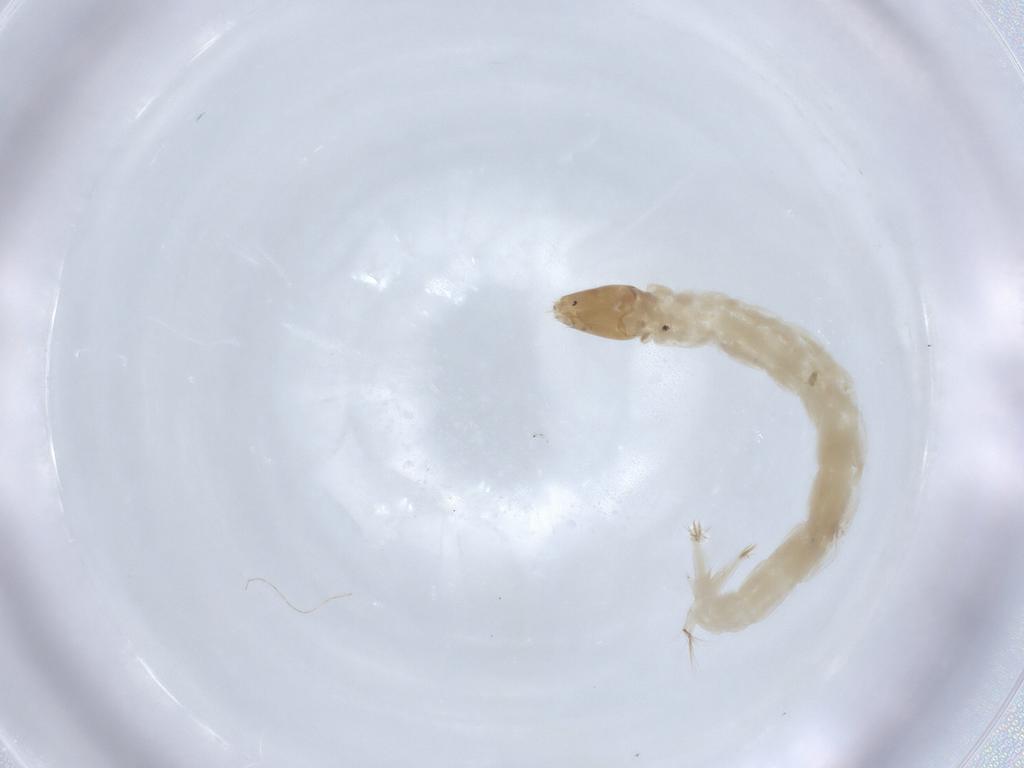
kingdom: Animalia
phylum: Arthropoda
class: Insecta
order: Diptera
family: Chironomidae
